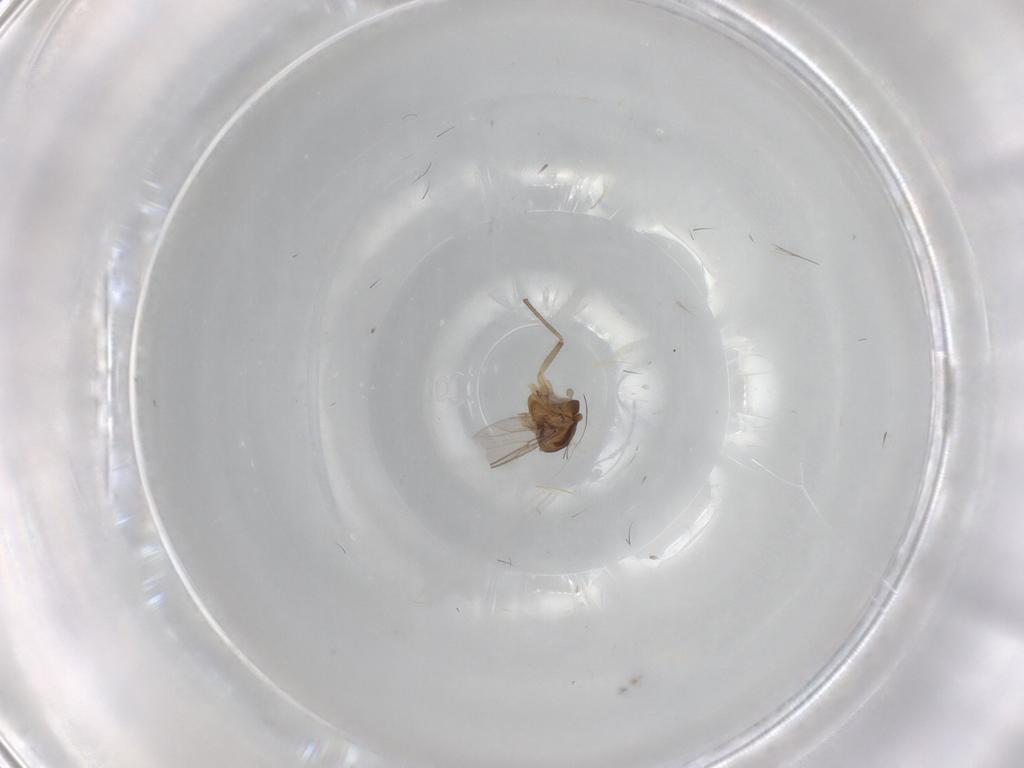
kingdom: Animalia
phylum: Arthropoda
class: Insecta
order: Diptera
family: Chironomidae
